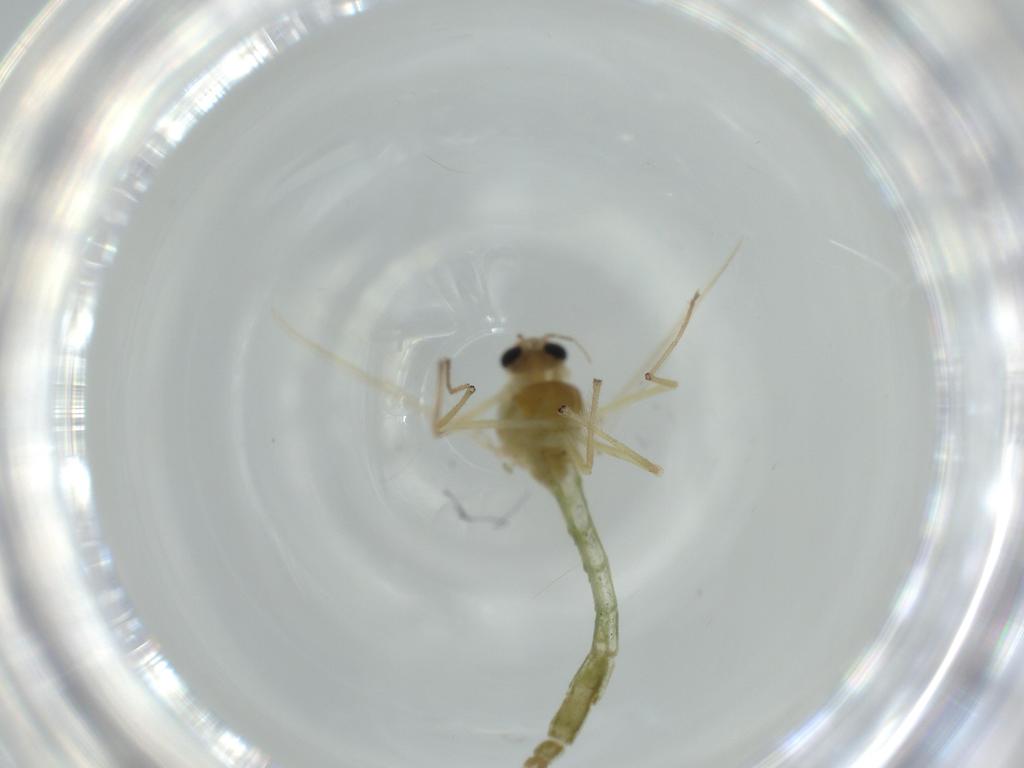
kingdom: Animalia
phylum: Arthropoda
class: Insecta
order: Diptera
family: Chironomidae
